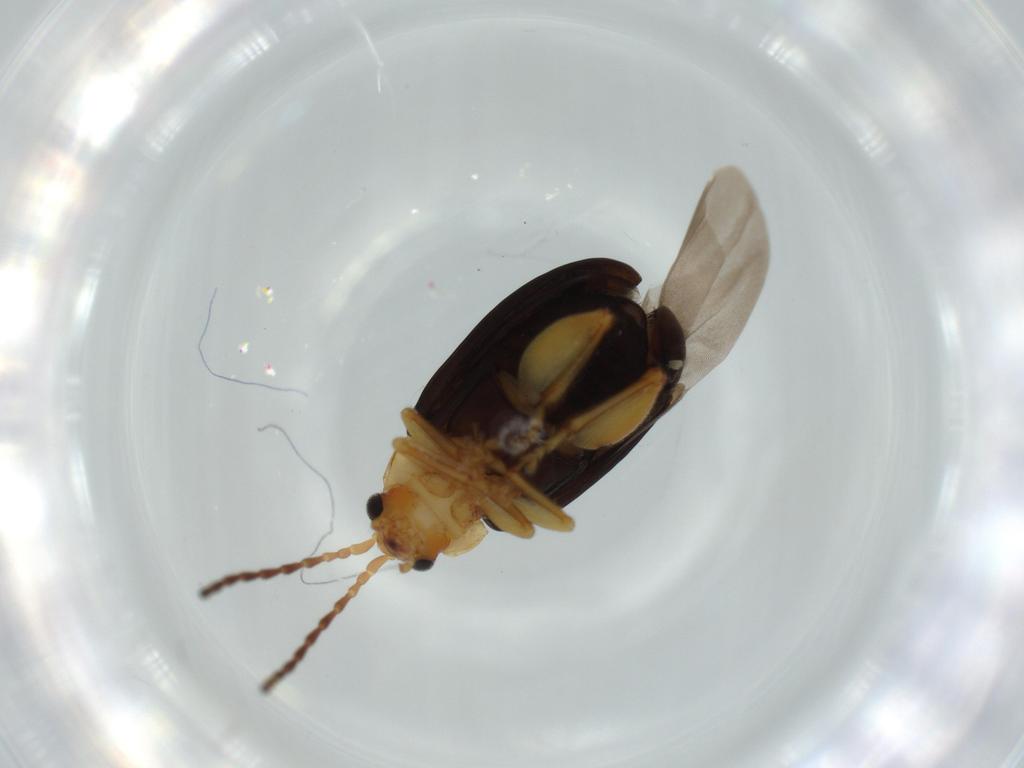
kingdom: Animalia
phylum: Arthropoda
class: Insecta
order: Coleoptera
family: Chrysomelidae
